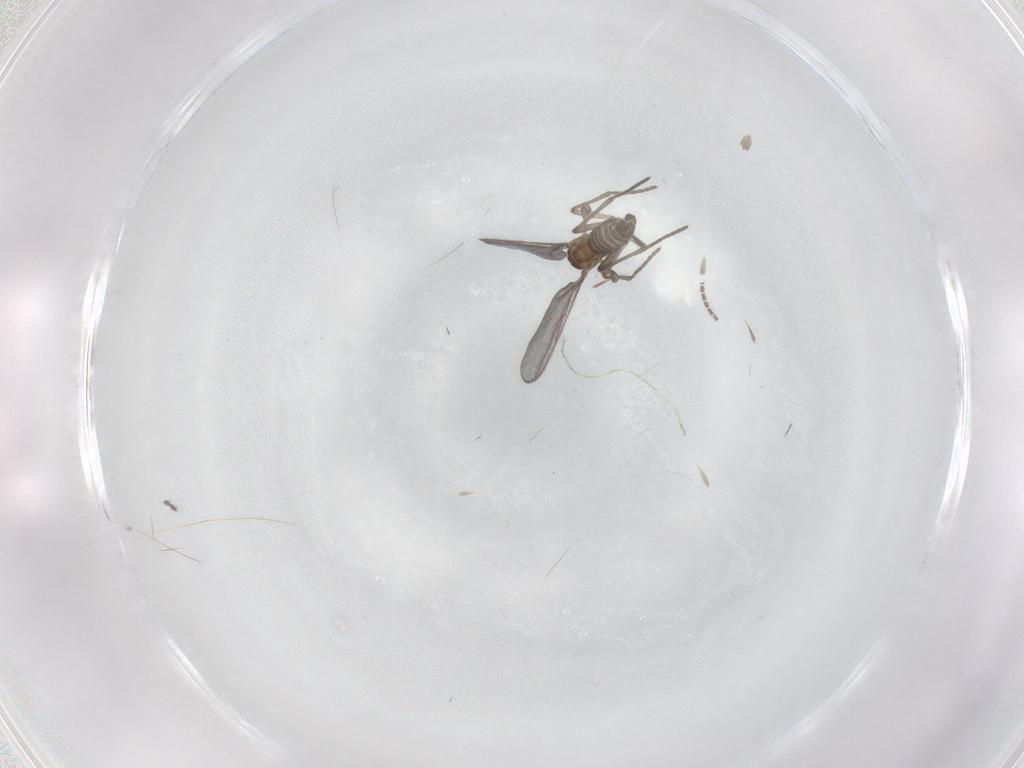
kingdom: Animalia
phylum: Arthropoda
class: Insecta
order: Diptera
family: Sciaridae
